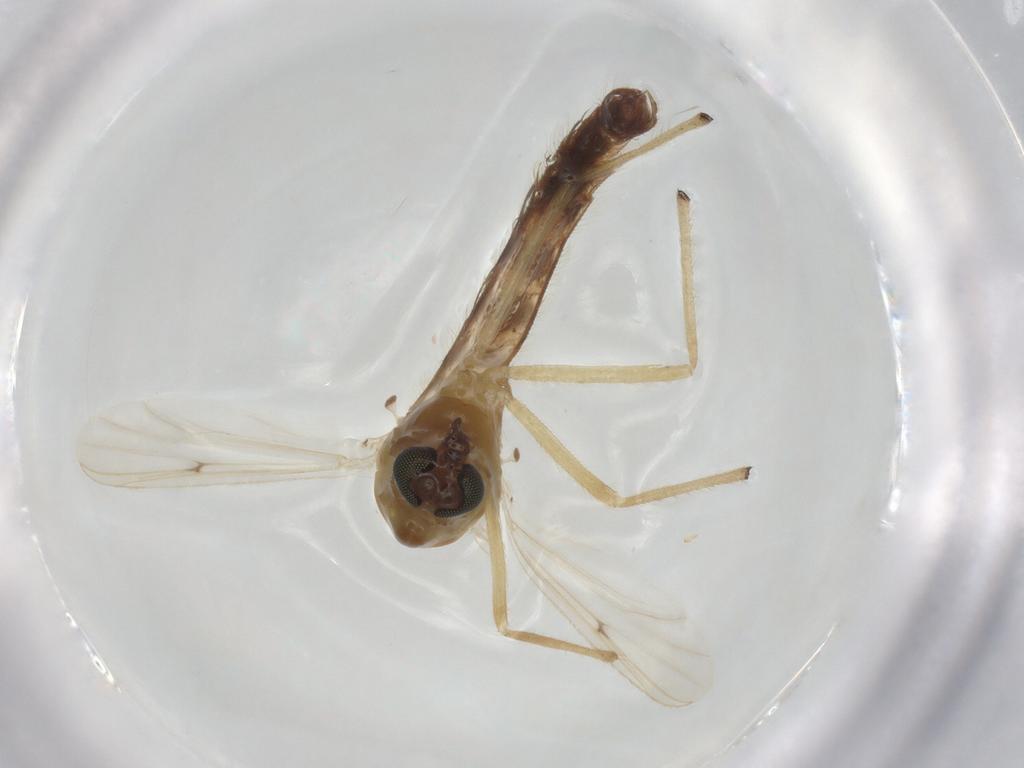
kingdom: Animalia
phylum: Arthropoda
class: Insecta
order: Diptera
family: Chironomidae
